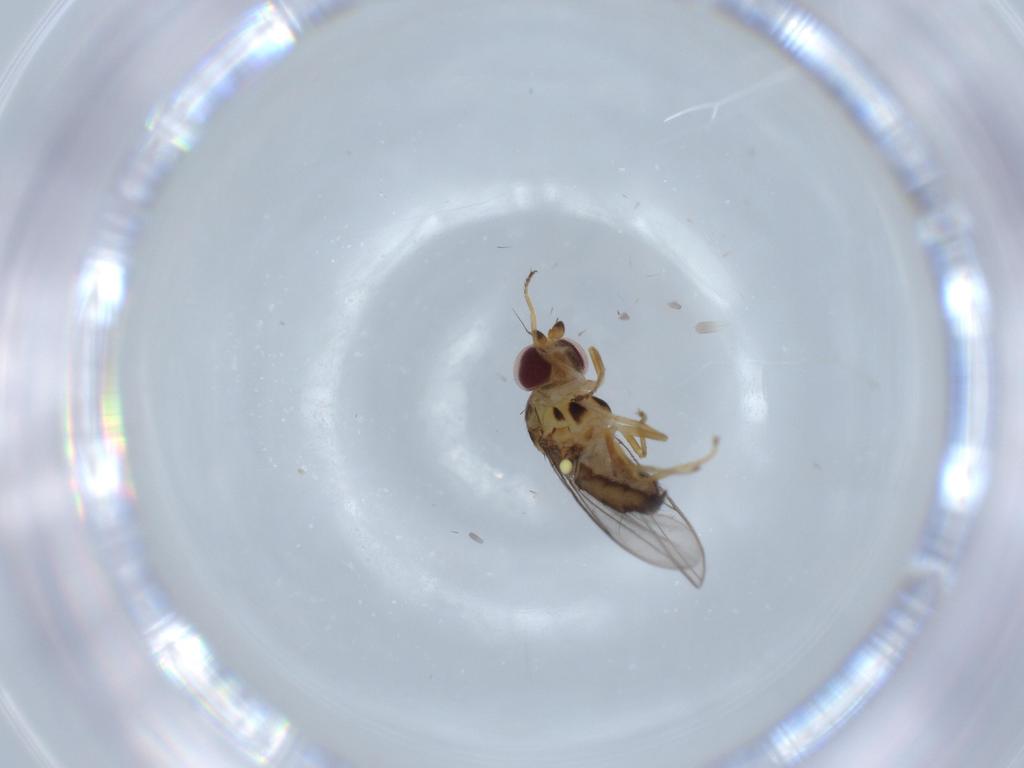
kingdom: Animalia
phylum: Arthropoda
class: Insecta
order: Diptera
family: Chloropidae
